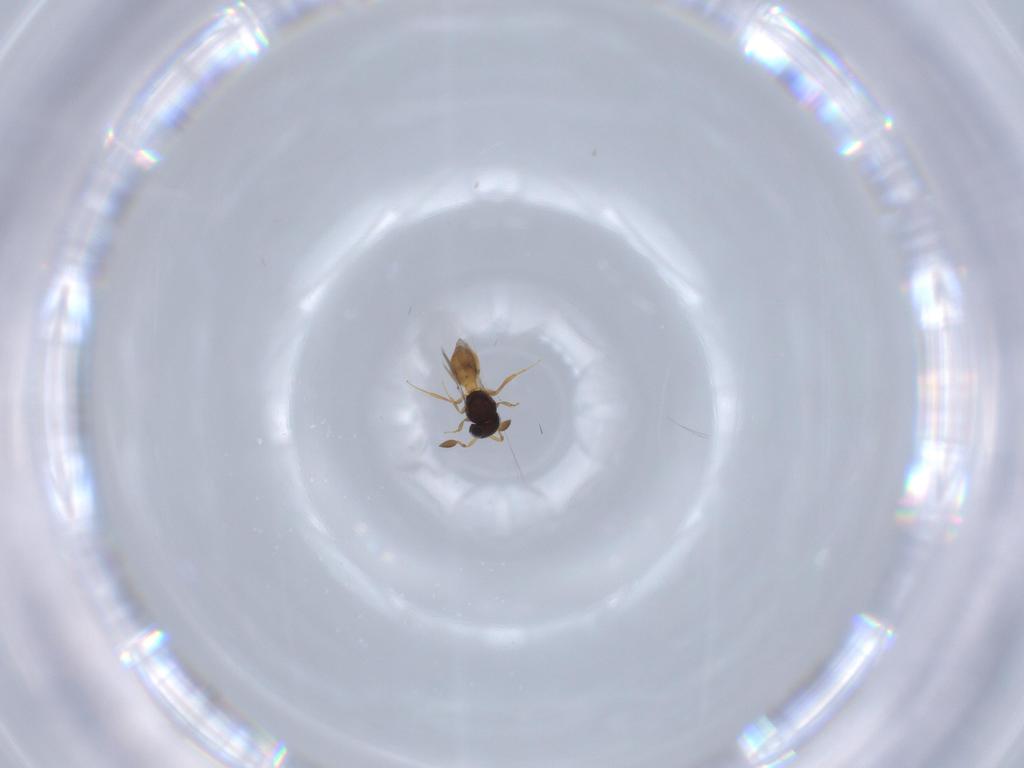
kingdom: Animalia
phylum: Arthropoda
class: Insecta
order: Hymenoptera
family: Scelionidae
